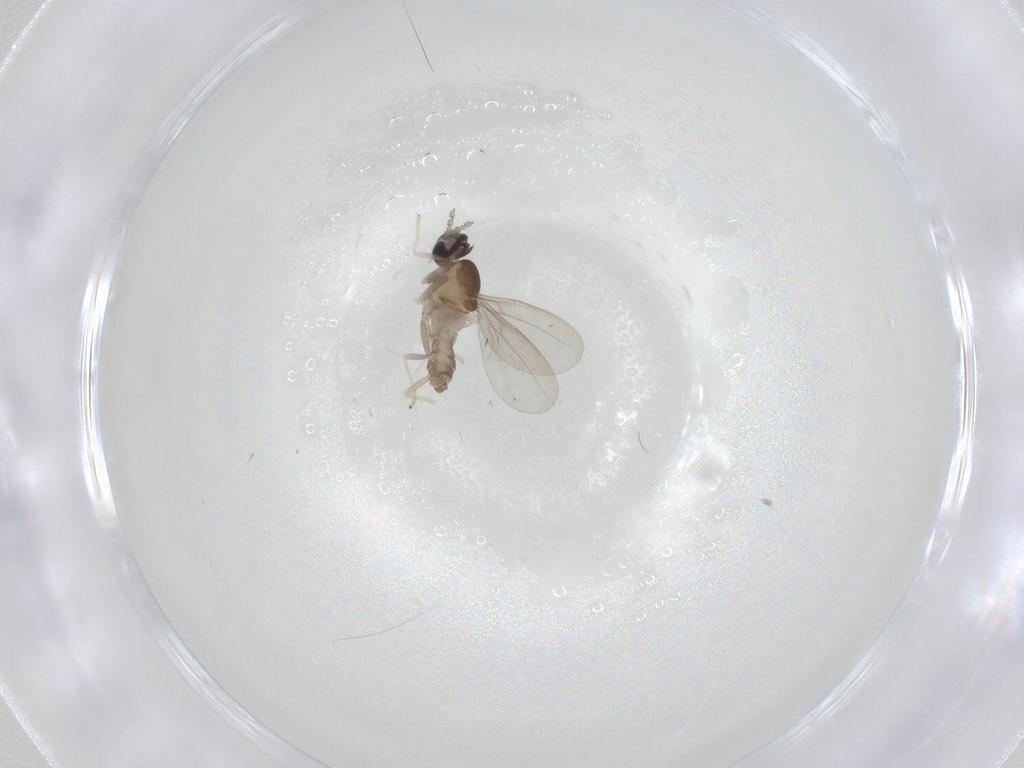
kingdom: Animalia
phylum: Arthropoda
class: Insecta
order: Diptera
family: Cecidomyiidae
